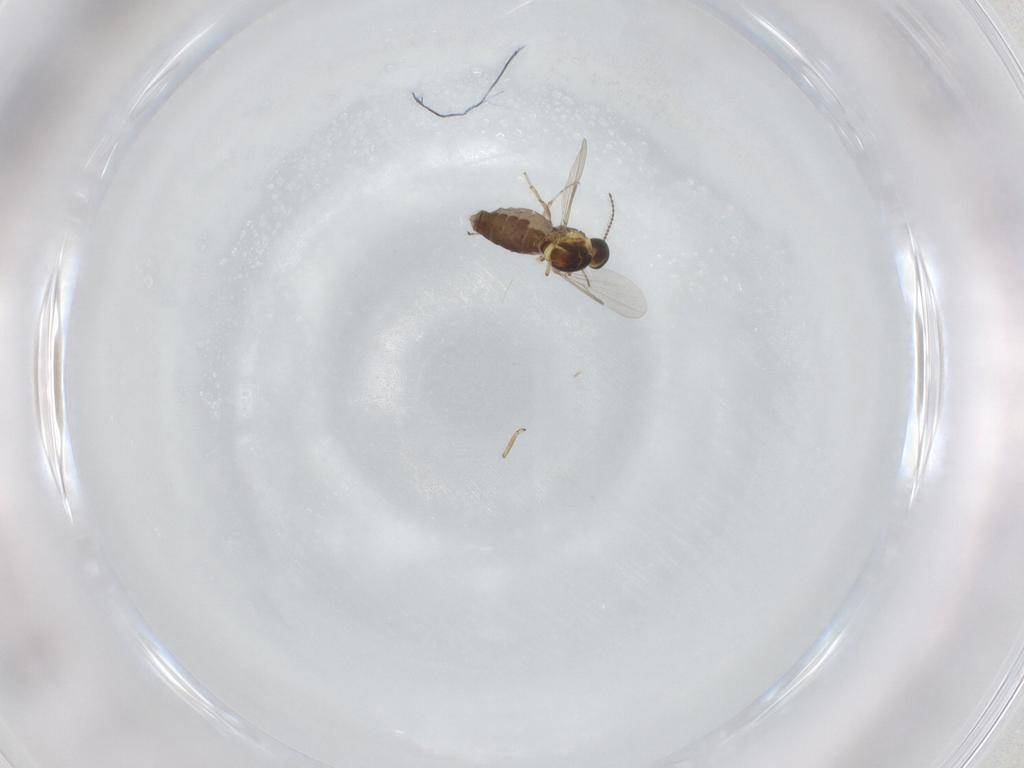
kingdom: Animalia
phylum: Arthropoda
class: Insecta
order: Diptera
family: Ceratopogonidae
